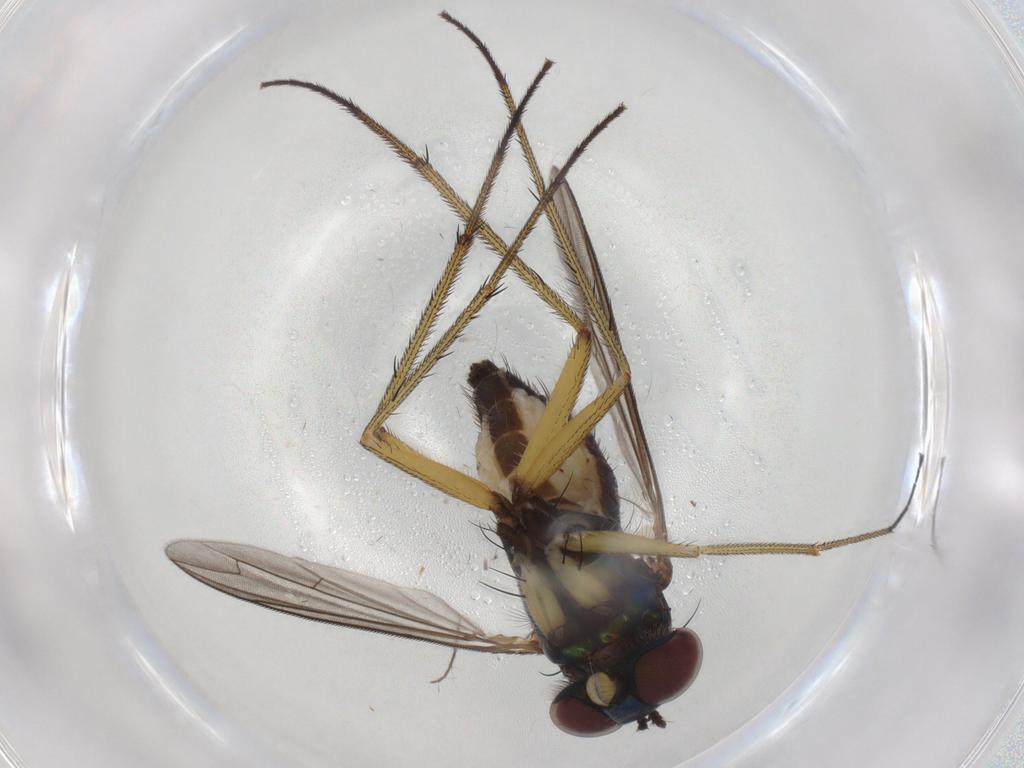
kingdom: Animalia
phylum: Arthropoda
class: Insecta
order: Diptera
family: Dolichopodidae
